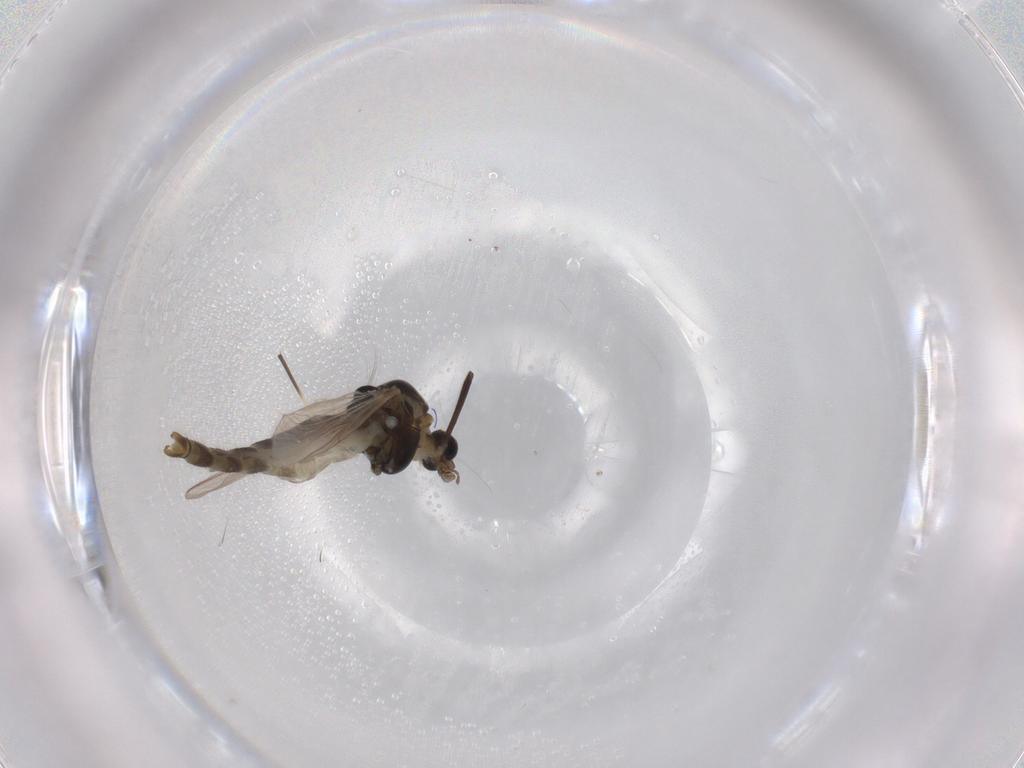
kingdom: Animalia
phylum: Arthropoda
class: Insecta
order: Diptera
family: Chironomidae
